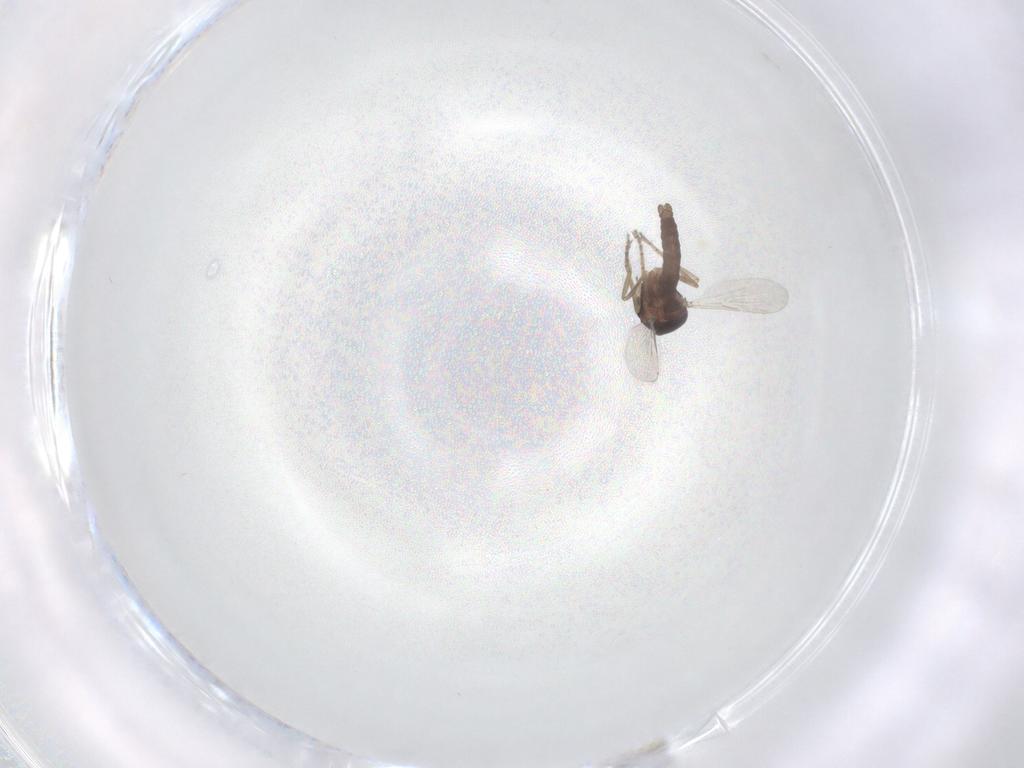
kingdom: Animalia
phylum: Arthropoda
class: Insecta
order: Diptera
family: Ceratopogonidae
